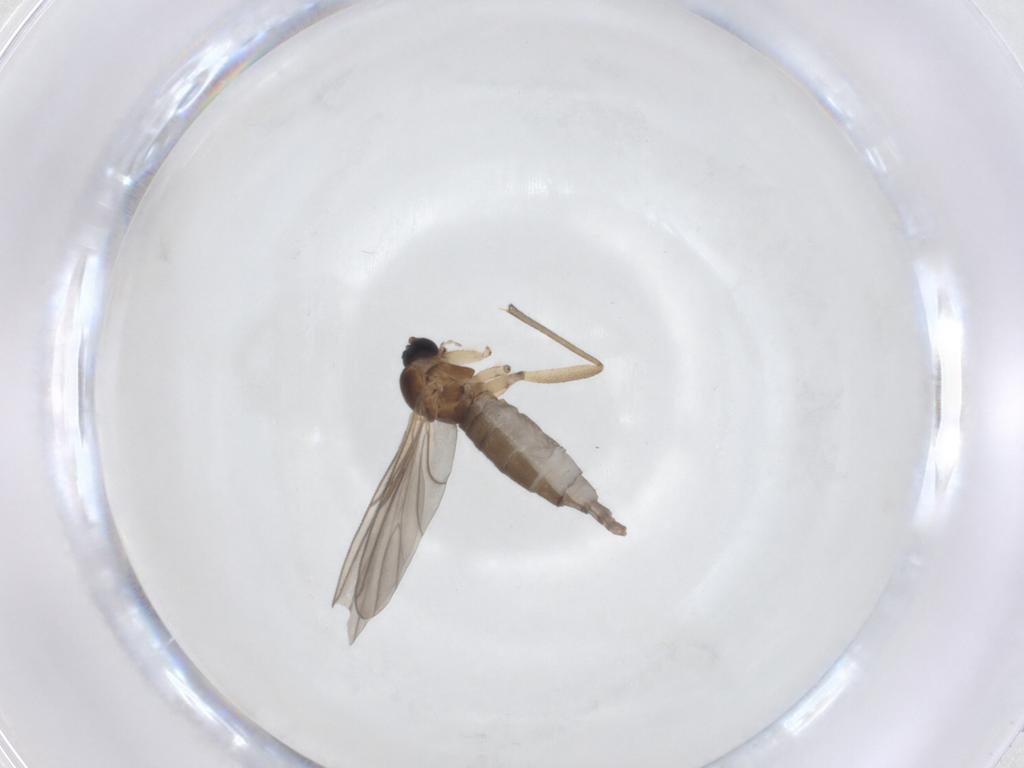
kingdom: Animalia
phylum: Arthropoda
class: Insecta
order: Diptera
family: Sciaridae
